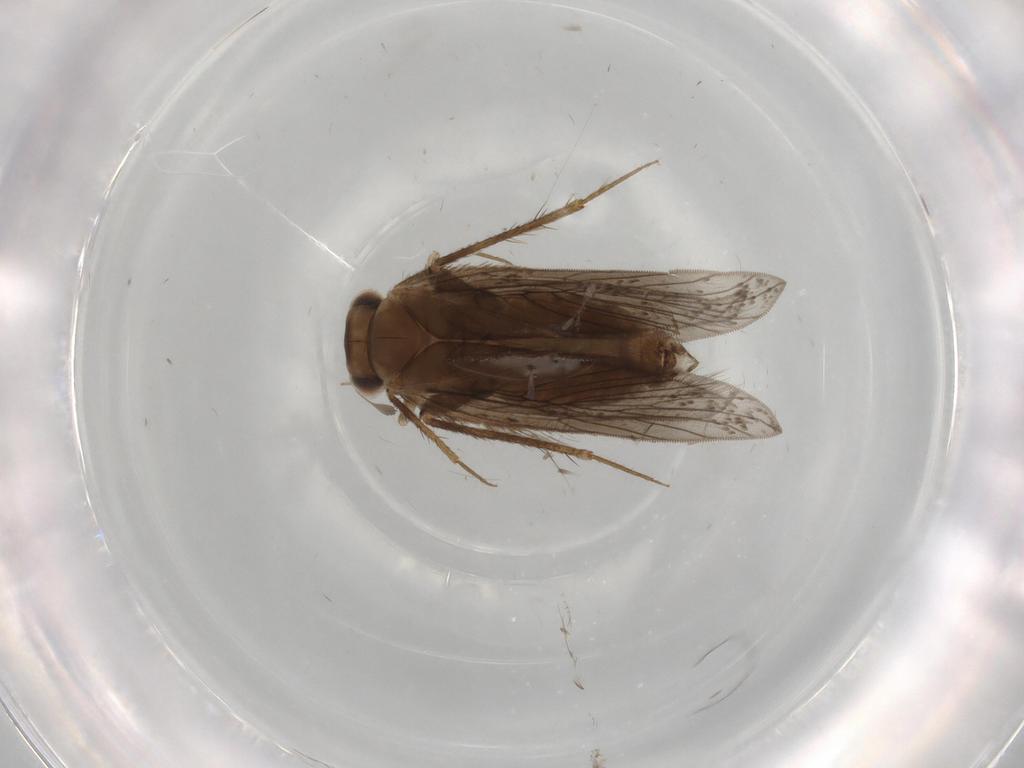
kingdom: Animalia
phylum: Arthropoda
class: Insecta
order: Psocodea
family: Lepidopsocidae
